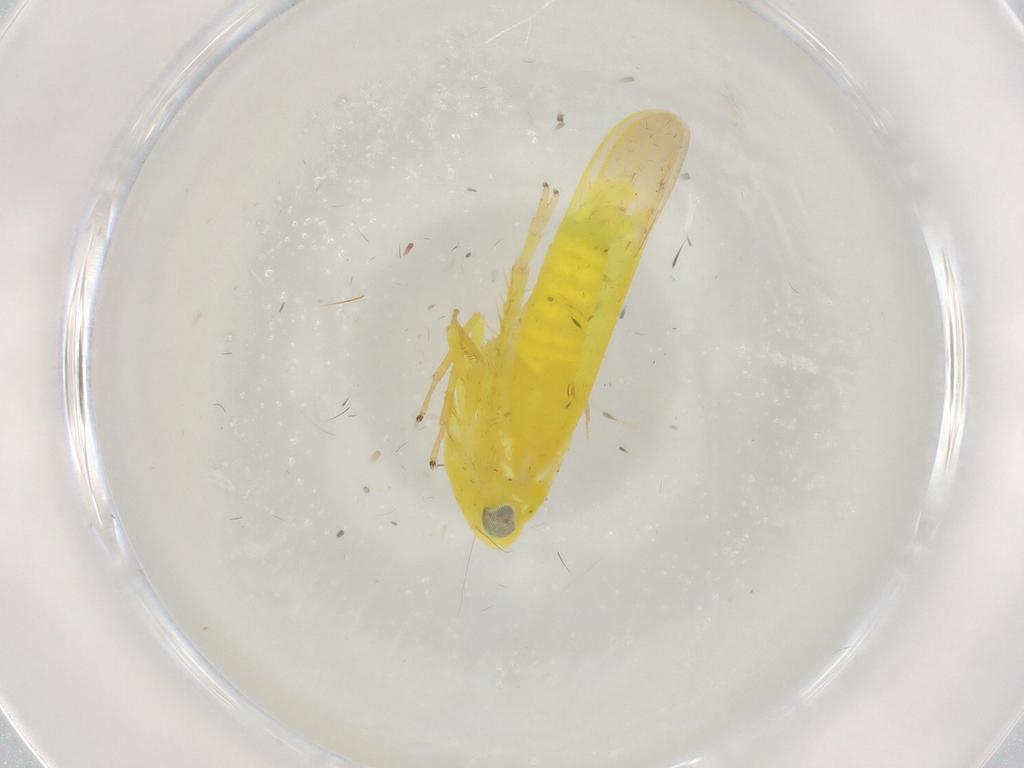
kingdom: Animalia
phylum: Arthropoda
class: Insecta
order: Hemiptera
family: Cicadellidae
